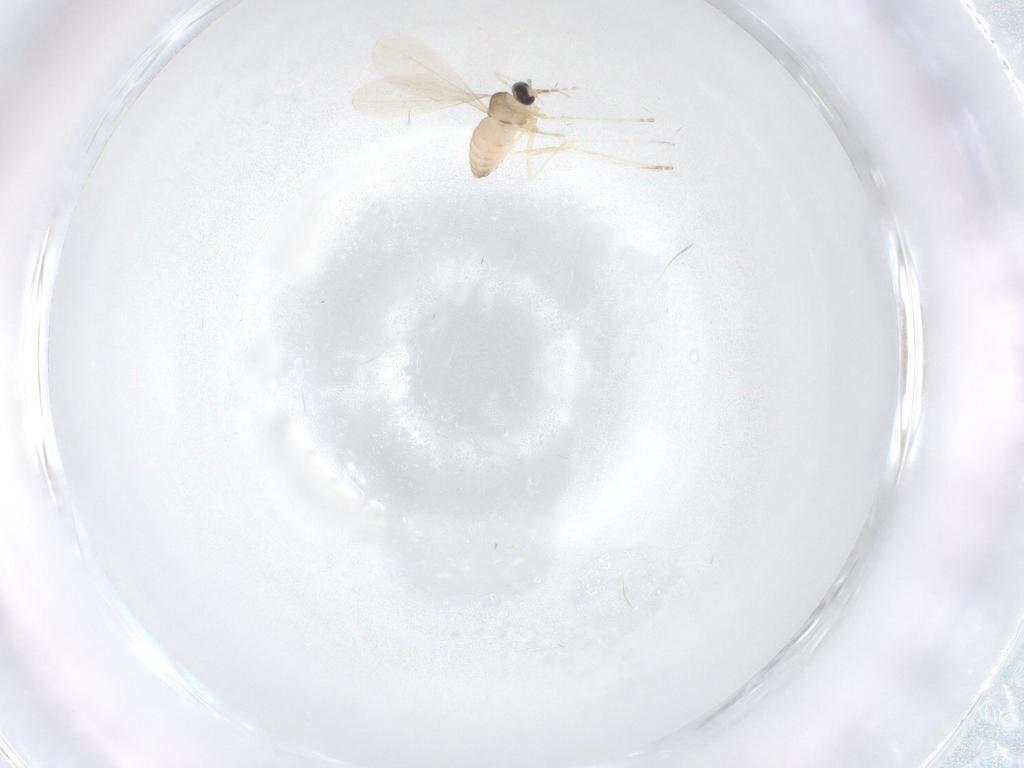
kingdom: Animalia
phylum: Arthropoda
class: Insecta
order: Diptera
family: Cecidomyiidae
